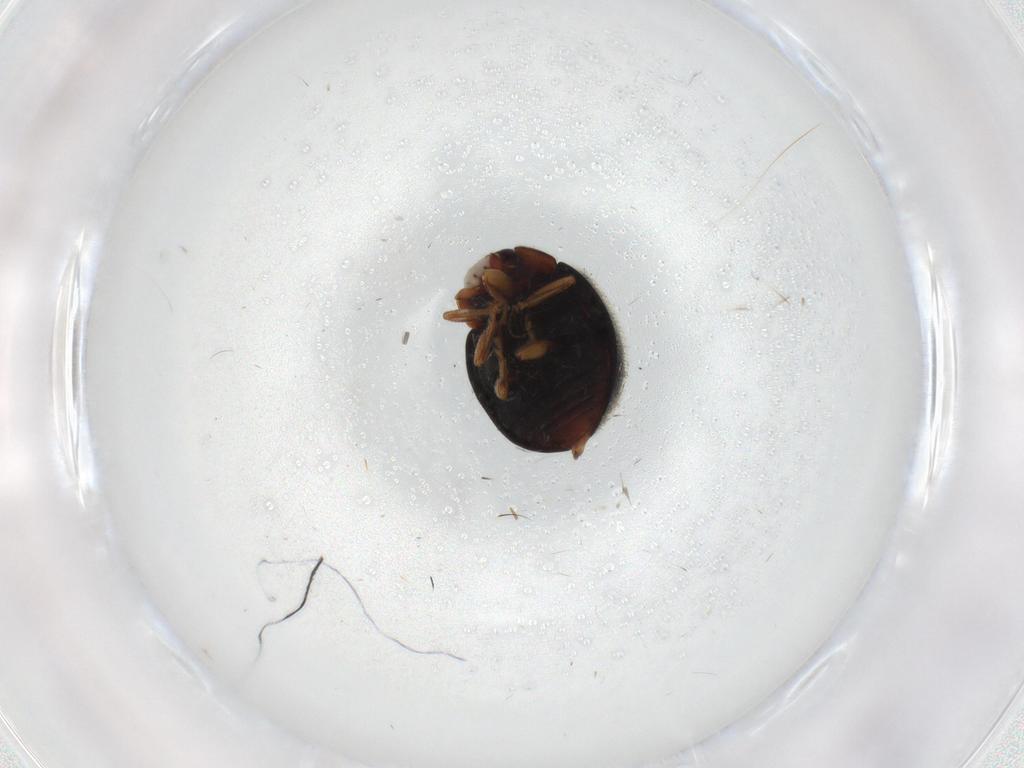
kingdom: Animalia
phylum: Arthropoda
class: Insecta
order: Coleoptera
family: Coccinellidae
